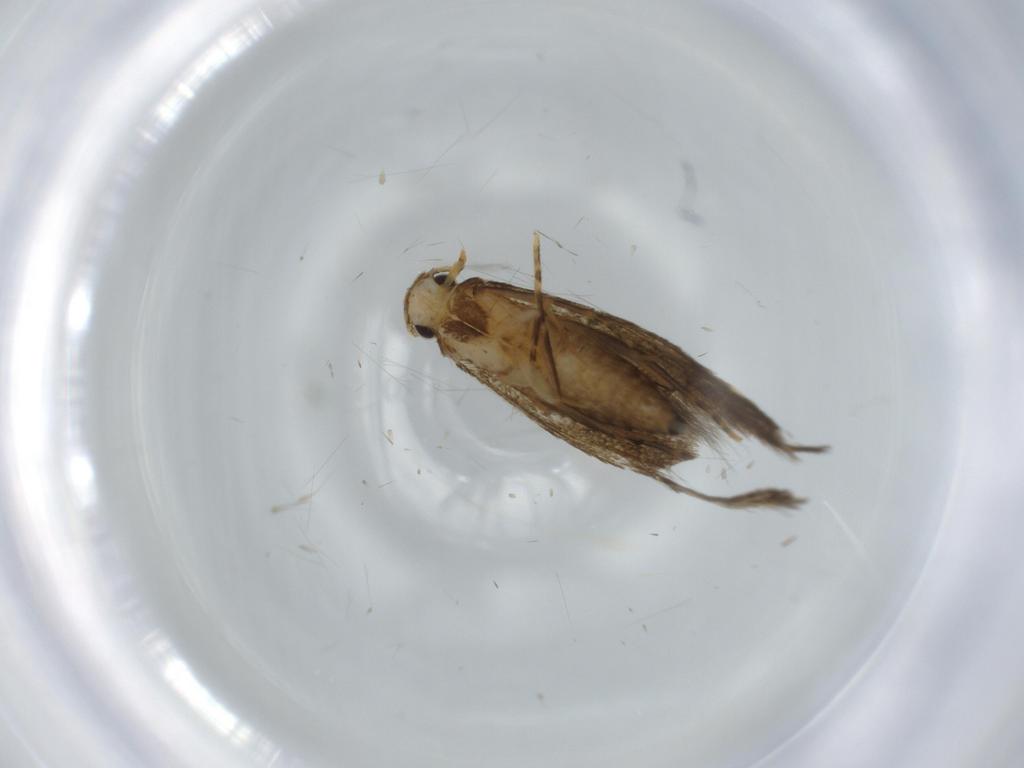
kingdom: Animalia
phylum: Arthropoda
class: Insecta
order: Lepidoptera
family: Tineidae
